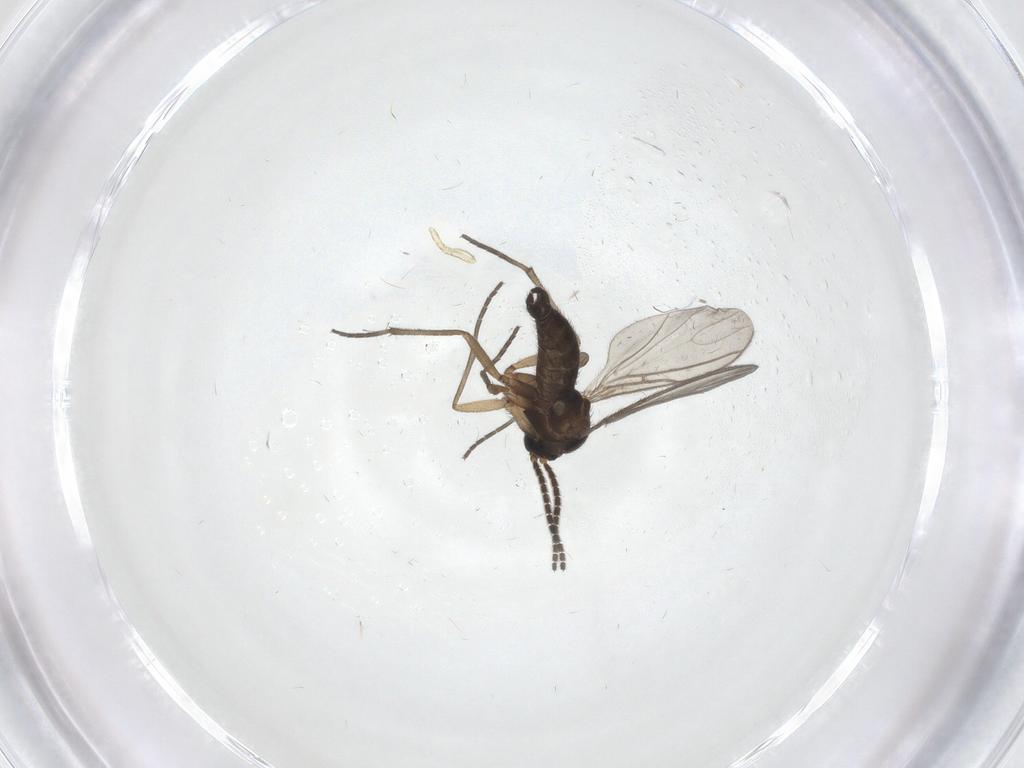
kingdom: Animalia
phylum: Arthropoda
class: Insecta
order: Diptera
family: Sciaridae
